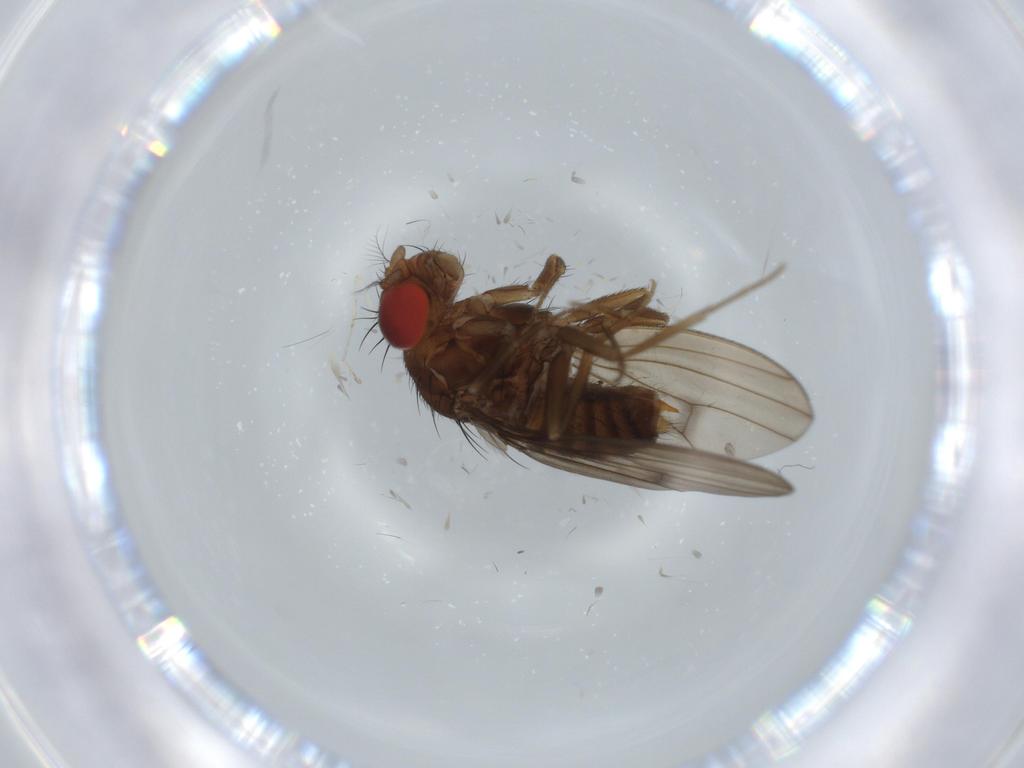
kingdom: Animalia
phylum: Arthropoda
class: Insecta
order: Diptera
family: Drosophilidae
